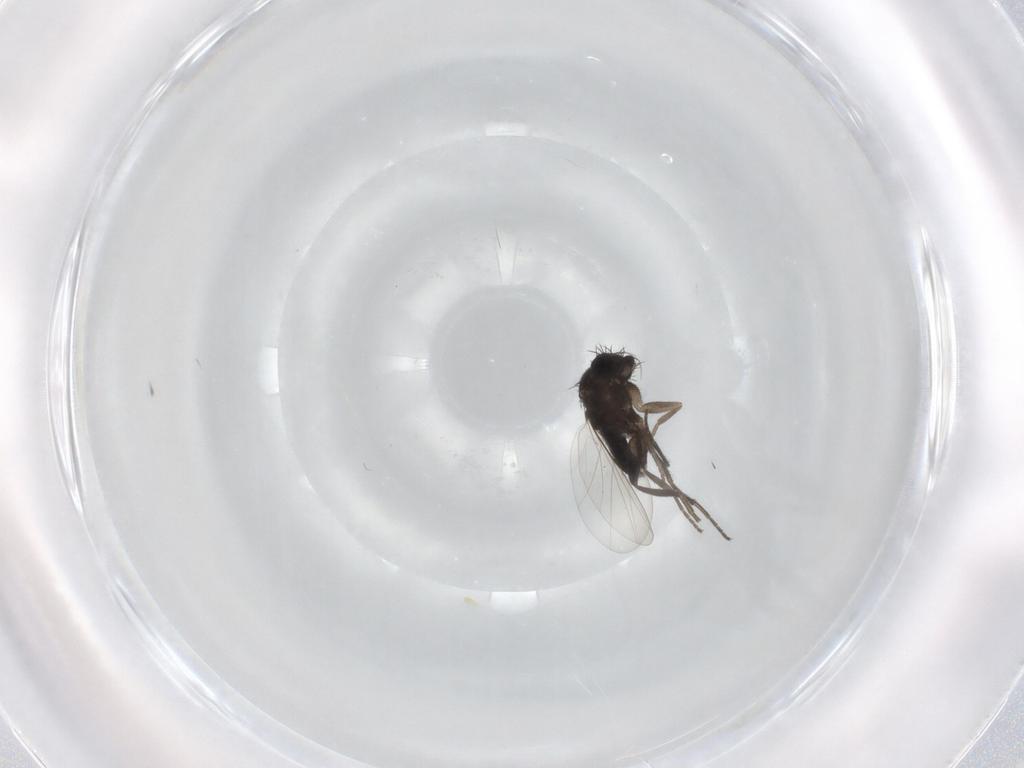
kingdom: Animalia
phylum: Arthropoda
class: Insecta
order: Diptera
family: Phoridae
